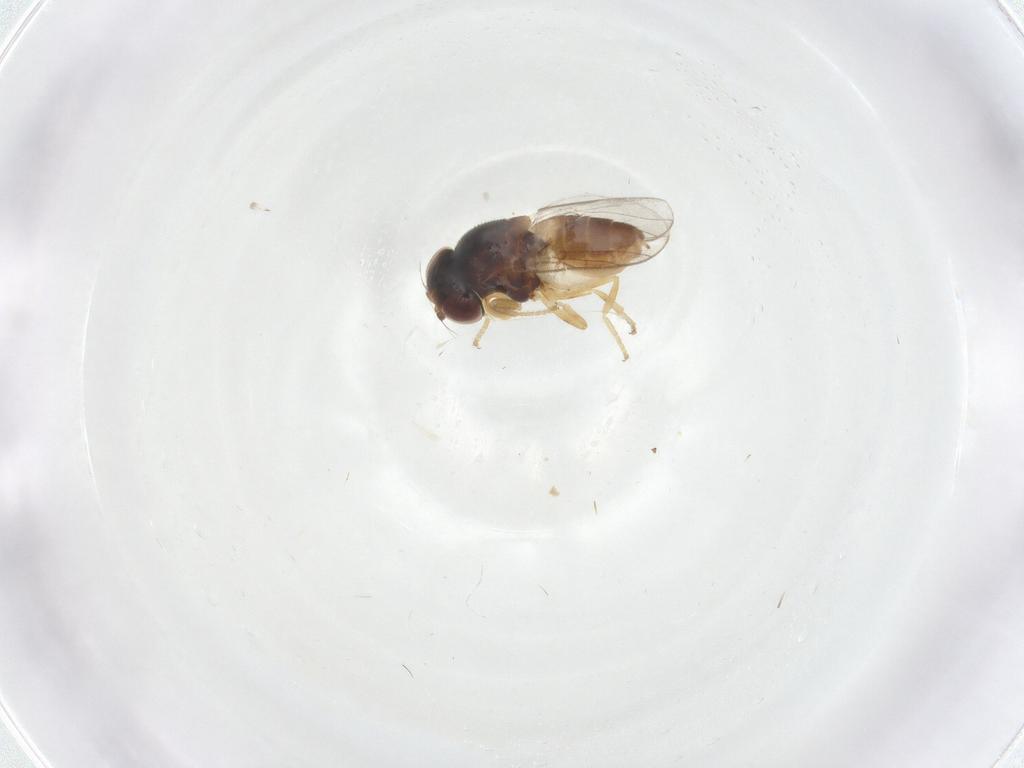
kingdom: Animalia
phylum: Arthropoda
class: Insecta
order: Diptera
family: Chloropidae
